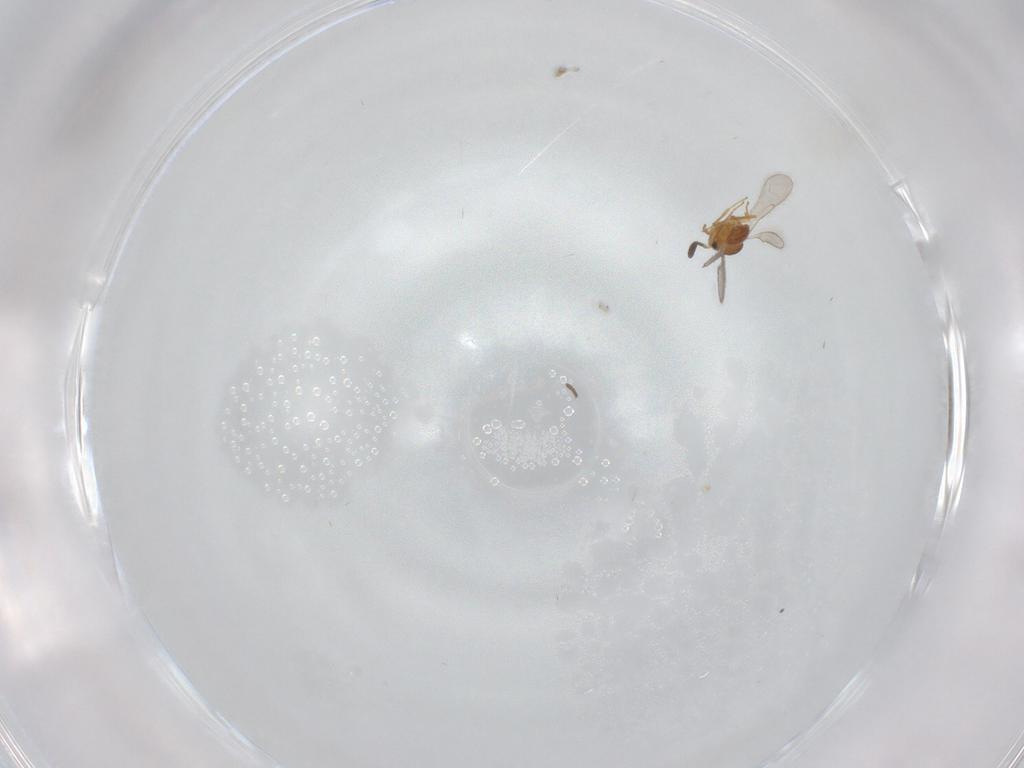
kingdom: Animalia
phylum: Arthropoda
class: Insecta
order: Hymenoptera
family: Scelionidae
